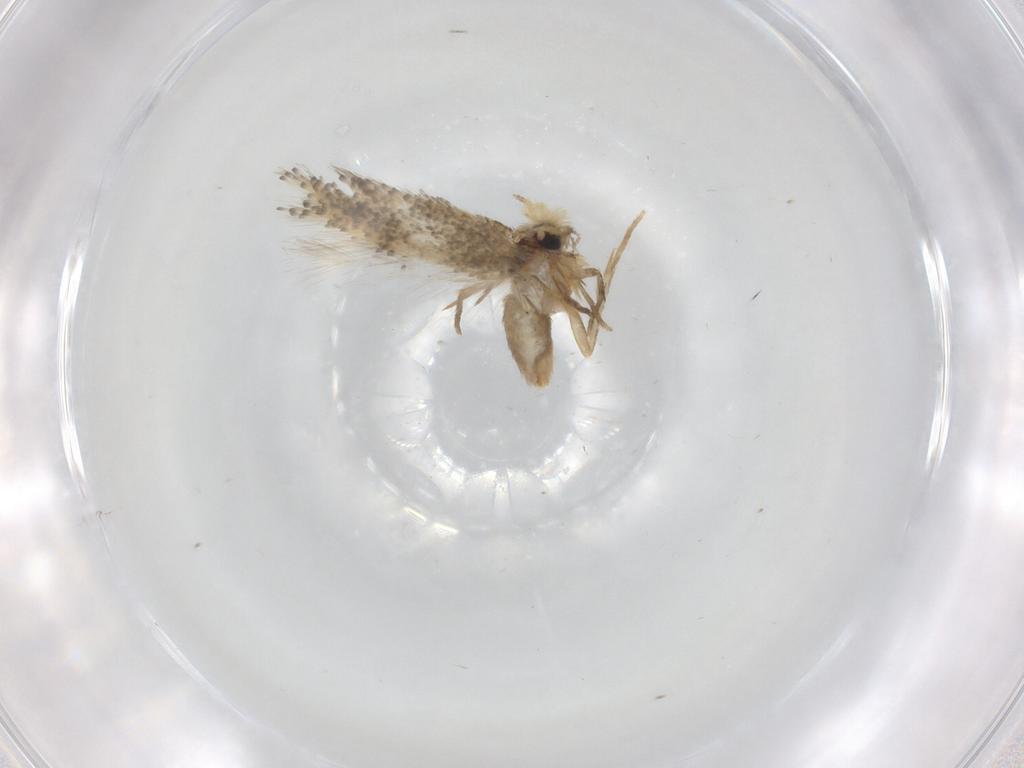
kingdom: Animalia
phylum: Arthropoda
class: Insecta
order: Lepidoptera
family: Nepticulidae
